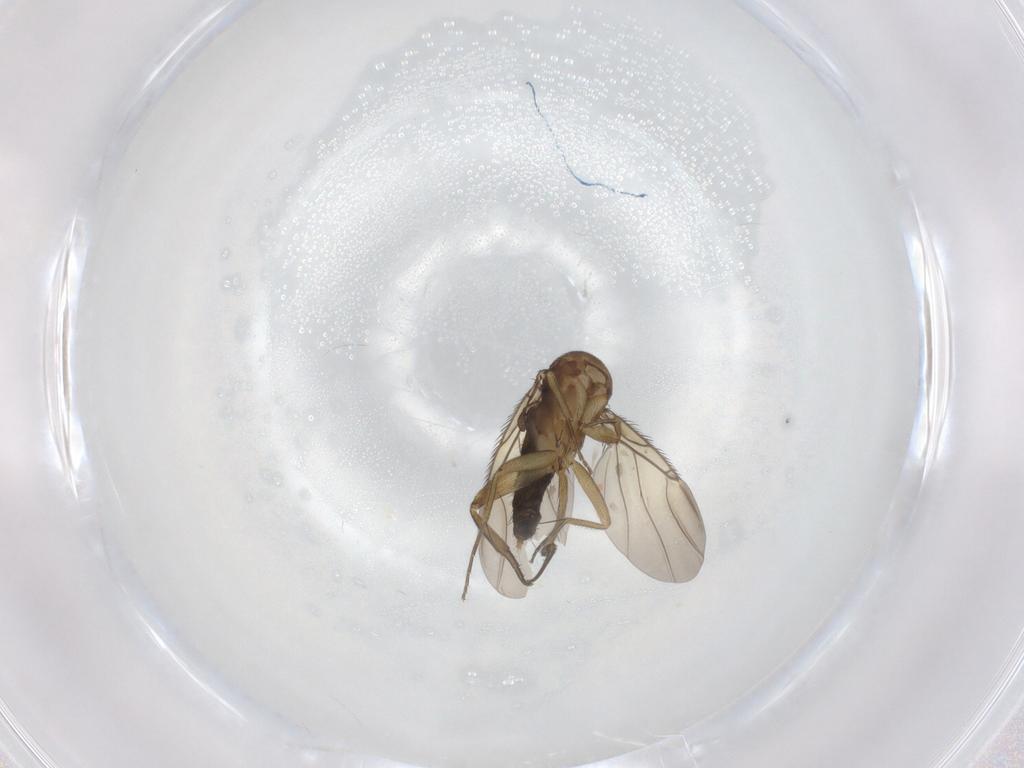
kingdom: Animalia
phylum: Arthropoda
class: Insecta
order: Diptera
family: Phoridae
